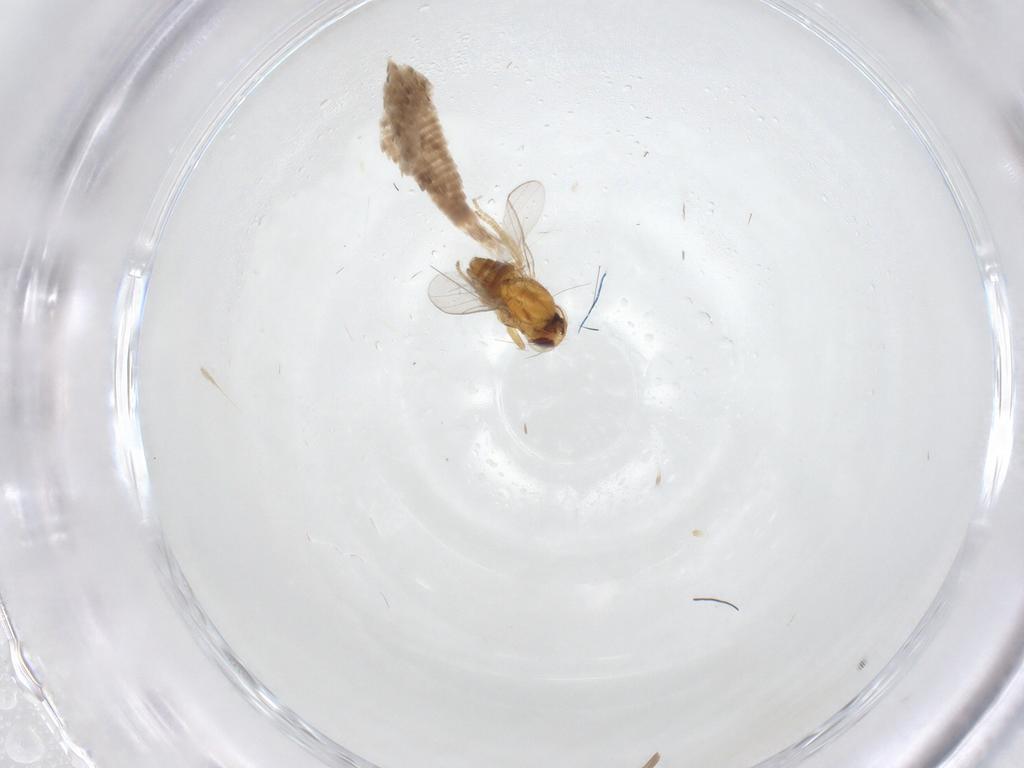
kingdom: Animalia
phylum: Arthropoda
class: Insecta
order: Diptera
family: Chloropidae
